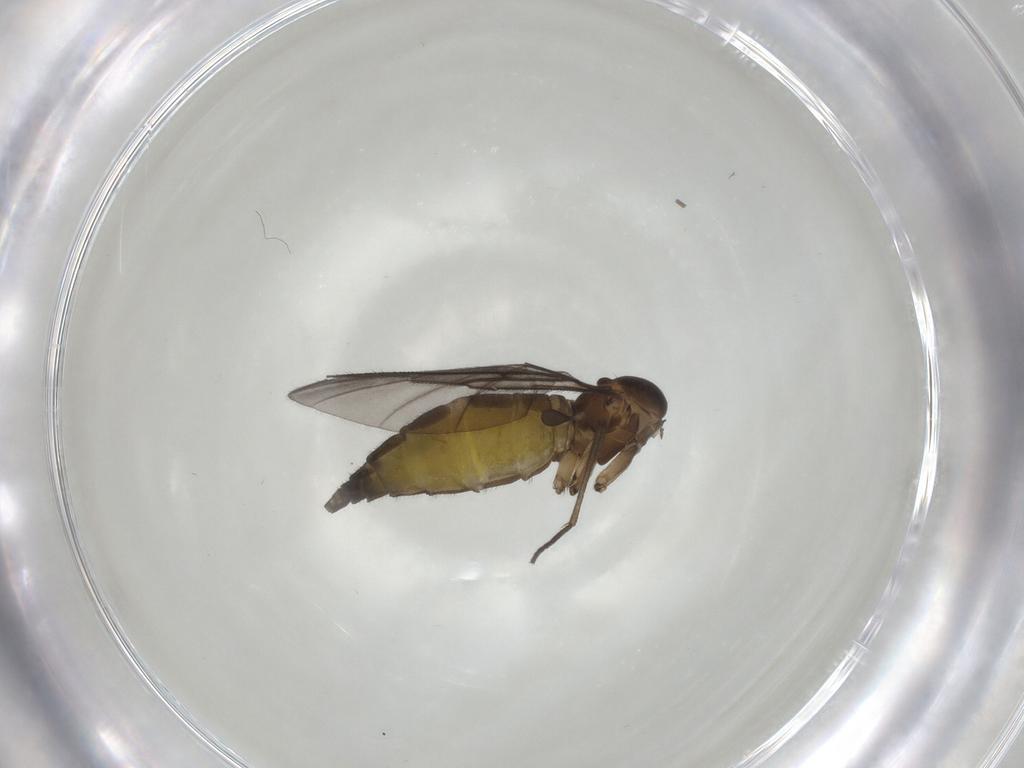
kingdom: Animalia
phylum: Arthropoda
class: Insecta
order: Diptera
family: Sciaridae
